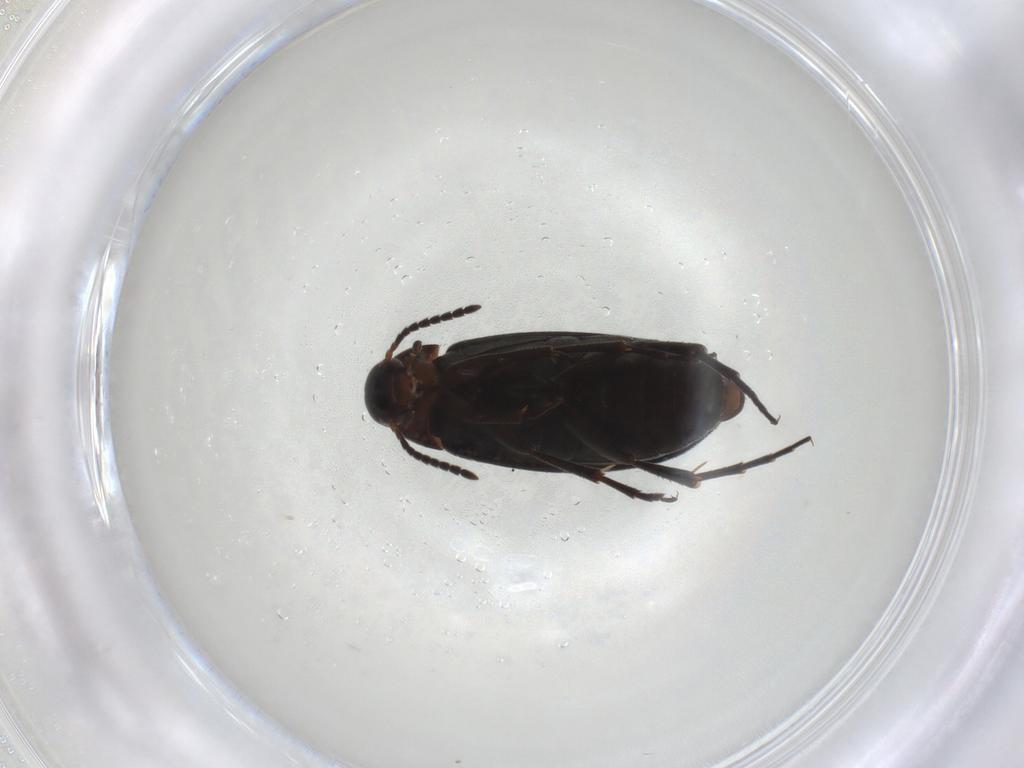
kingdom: Animalia
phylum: Arthropoda
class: Insecta
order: Coleoptera
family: Scraptiidae
